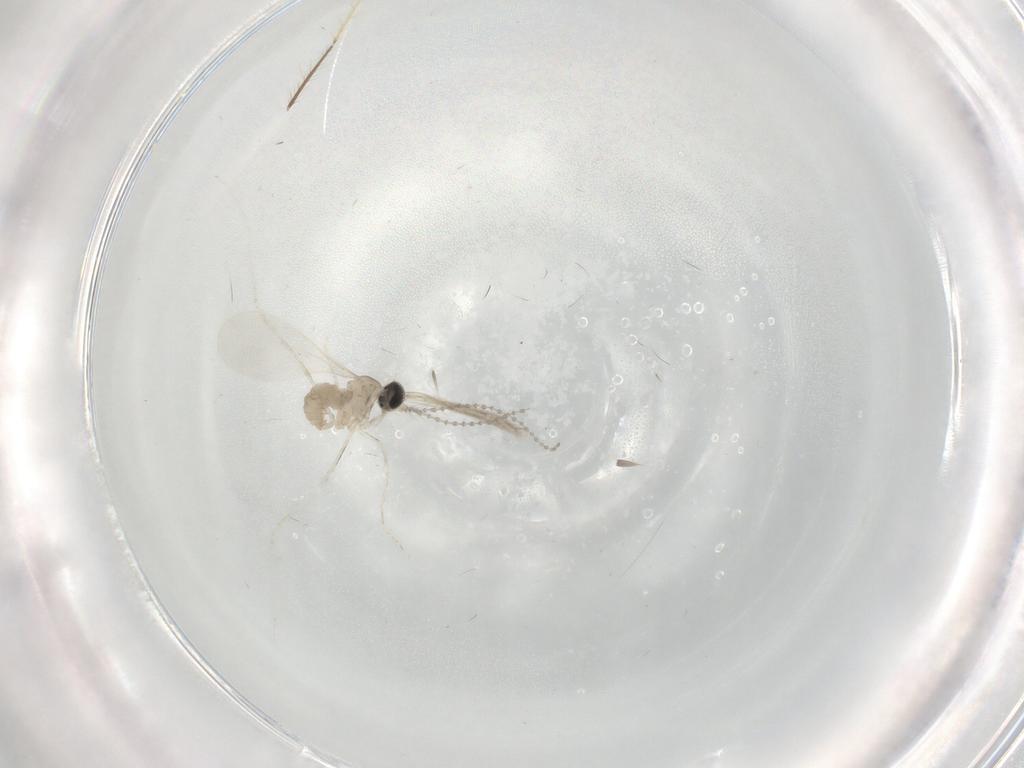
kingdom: Animalia
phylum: Arthropoda
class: Insecta
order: Diptera
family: Cecidomyiidae
